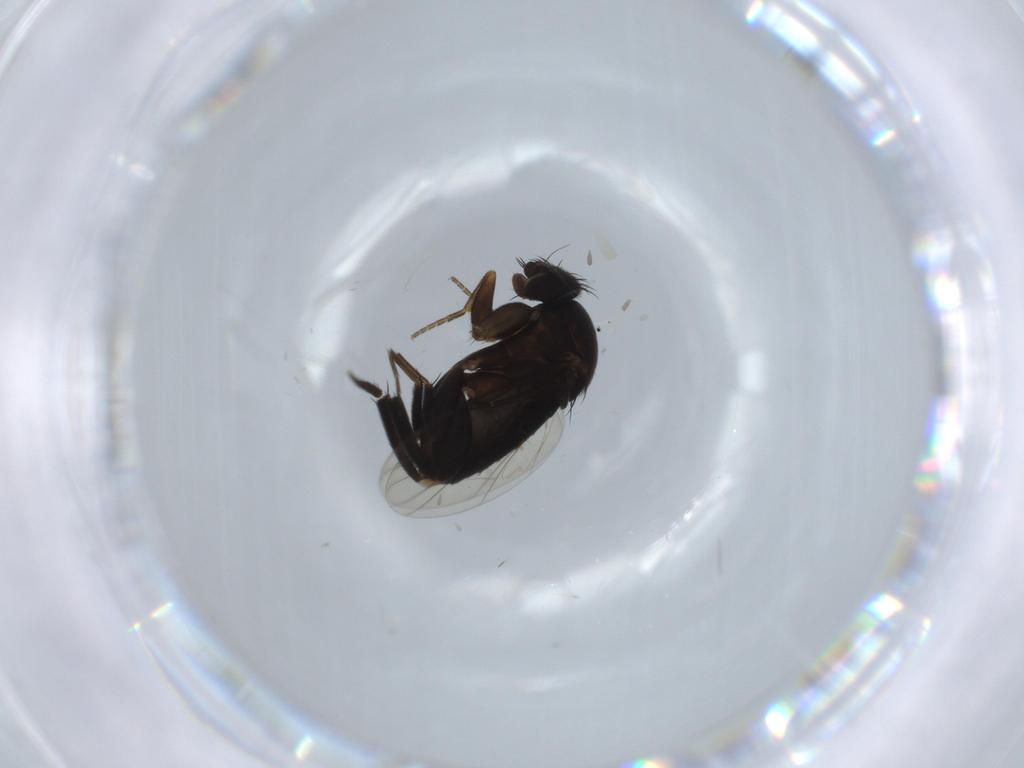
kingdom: Animalia
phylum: Arthropoda
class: Insecta
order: Diptera
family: Phoridae
